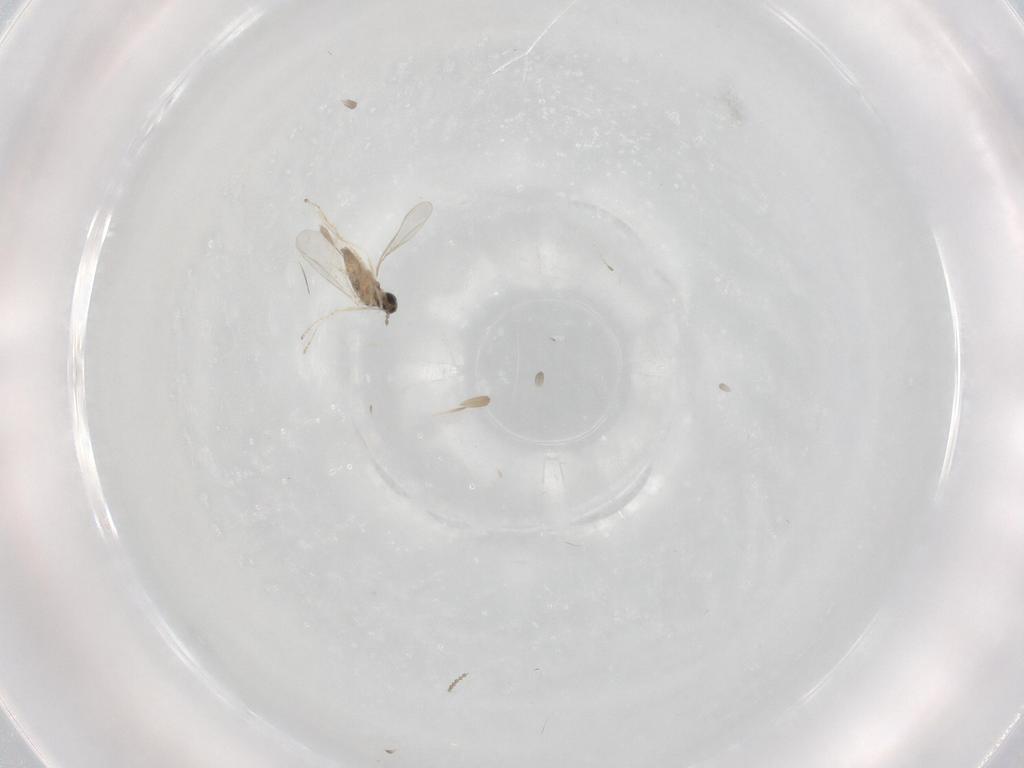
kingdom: Animalia
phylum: Arthropoda
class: Insecta
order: Diptera
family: Cecidomyiidae
